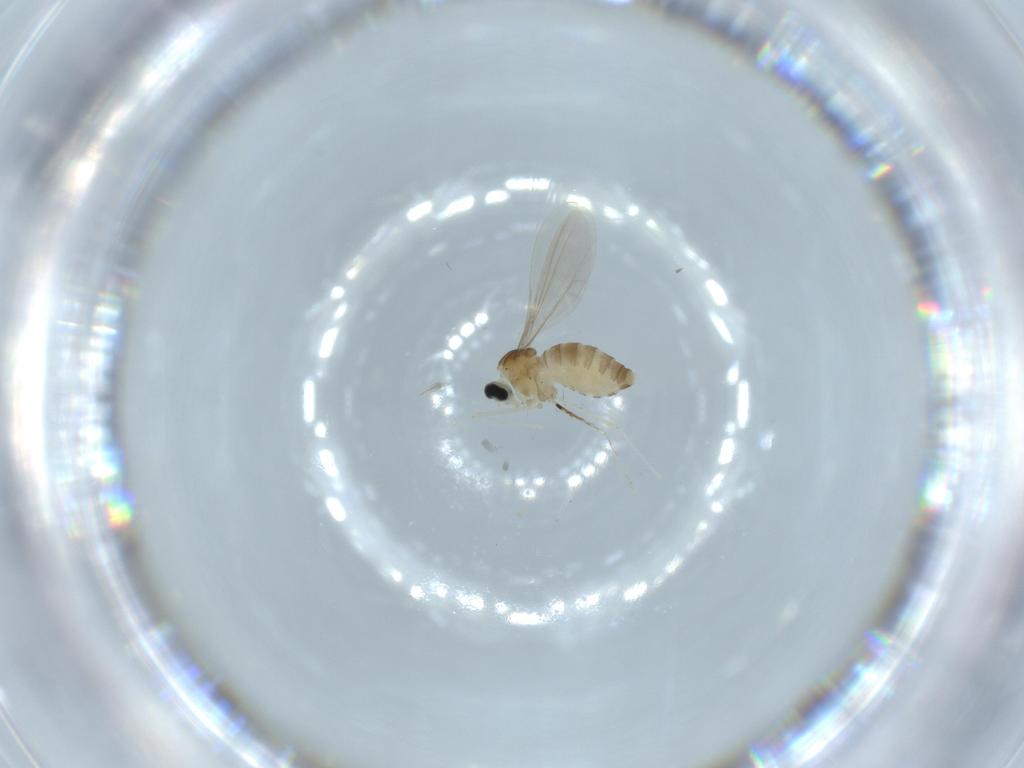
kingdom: Animalia
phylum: Arthropoda
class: Insecta
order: Diptera
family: Cecidomyiidae
